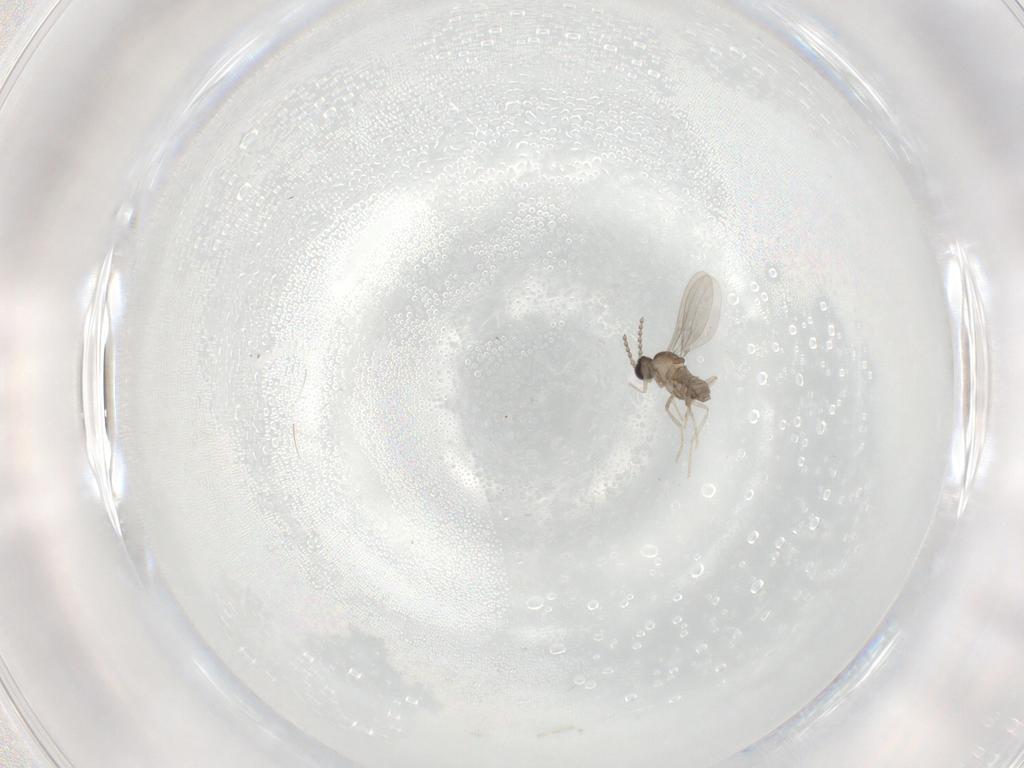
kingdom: Animalia
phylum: Arthropoda
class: Insecta
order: Diptera
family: Cecidomyiidae
